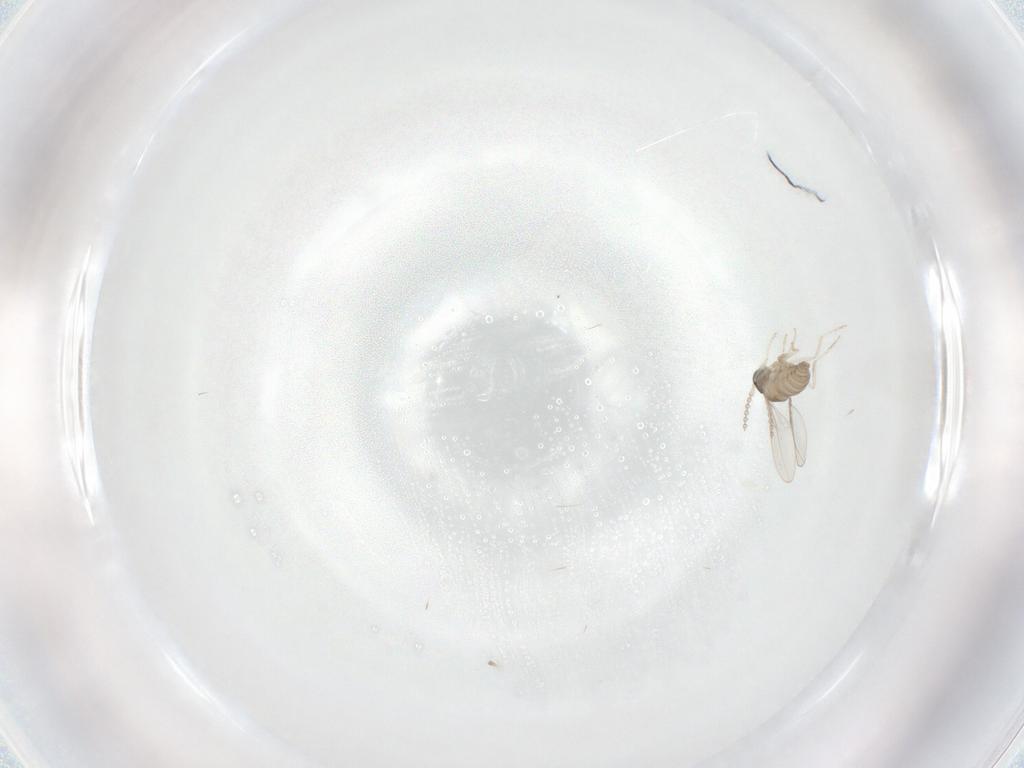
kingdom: Animalia
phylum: Arthropoda
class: Insecta
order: Diptera
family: Cecidomyiidae
